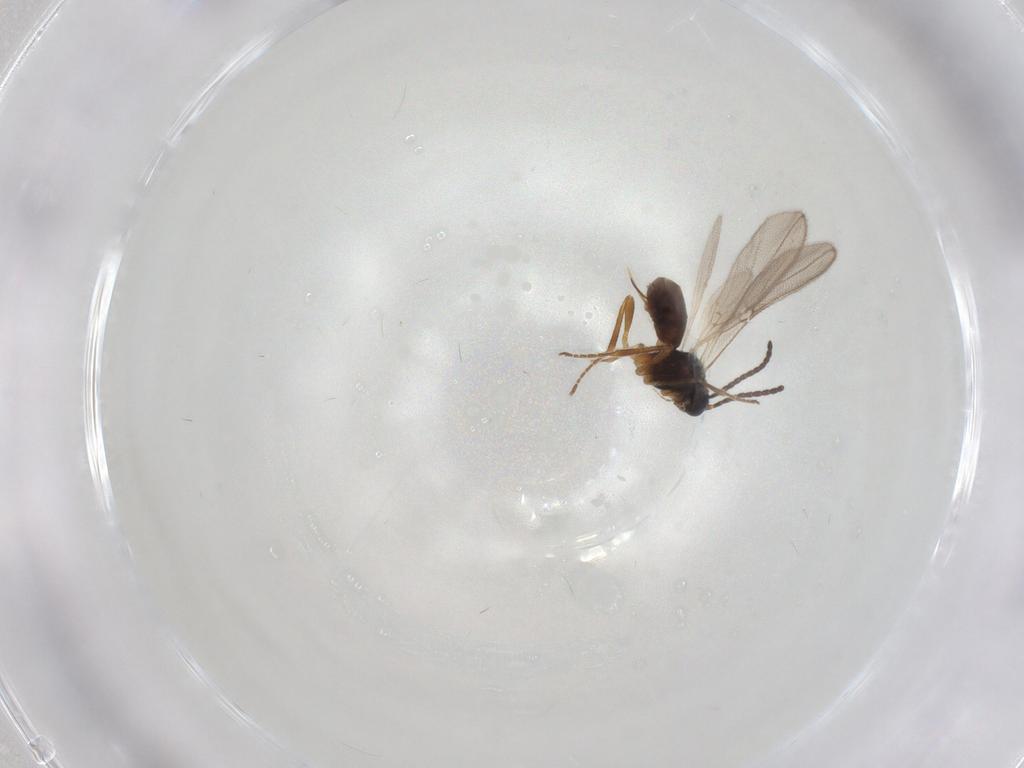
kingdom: Animalia
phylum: Arthropoda
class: Insecta
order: Hymenoptera
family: Braconidae
